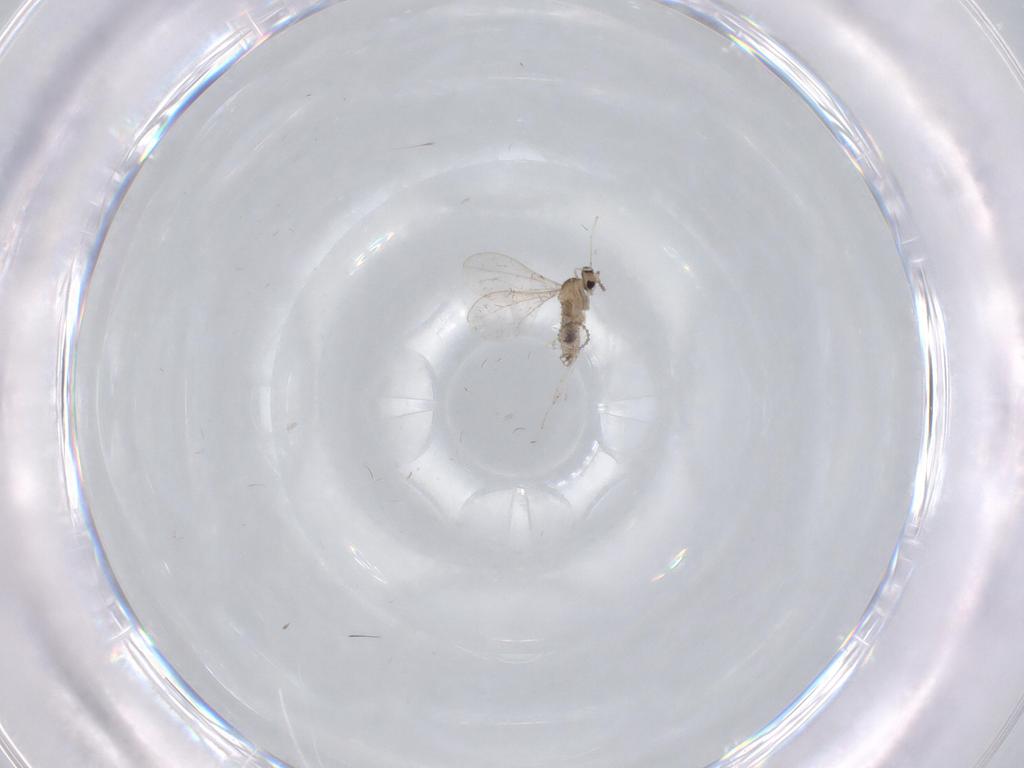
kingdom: Animalia
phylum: Arthropoda
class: Insecta
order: Diptera
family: Cecidomyiidae
